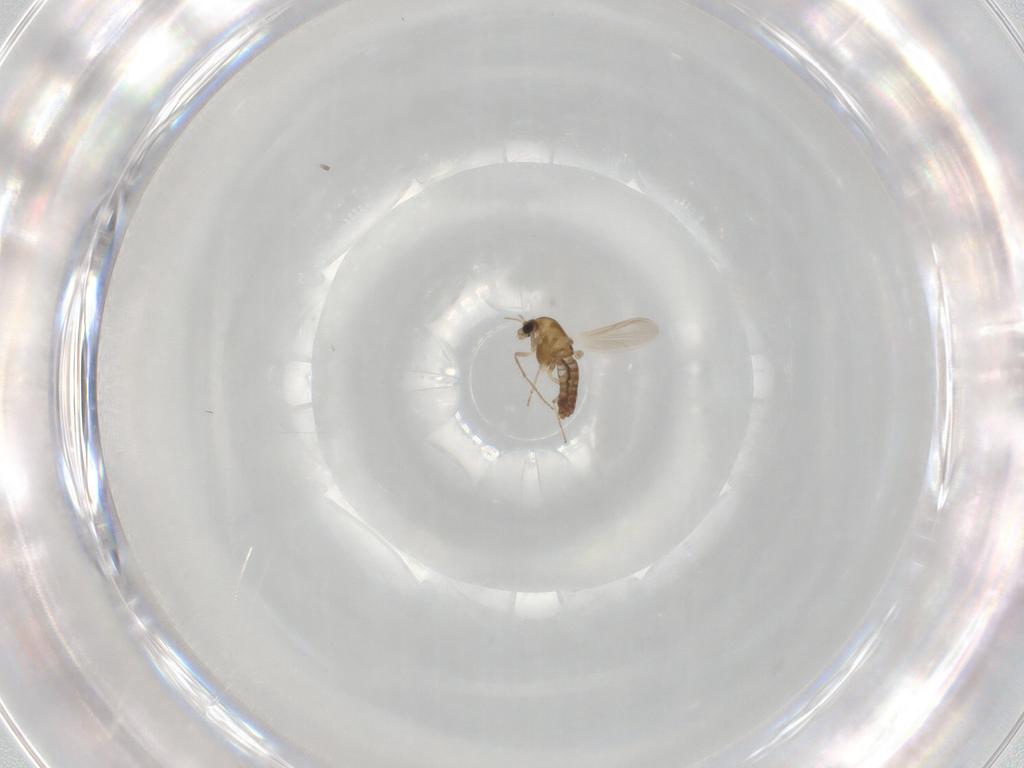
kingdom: Animalia
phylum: Arthropoda
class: Insecta
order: Diptera
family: Chironomidae
